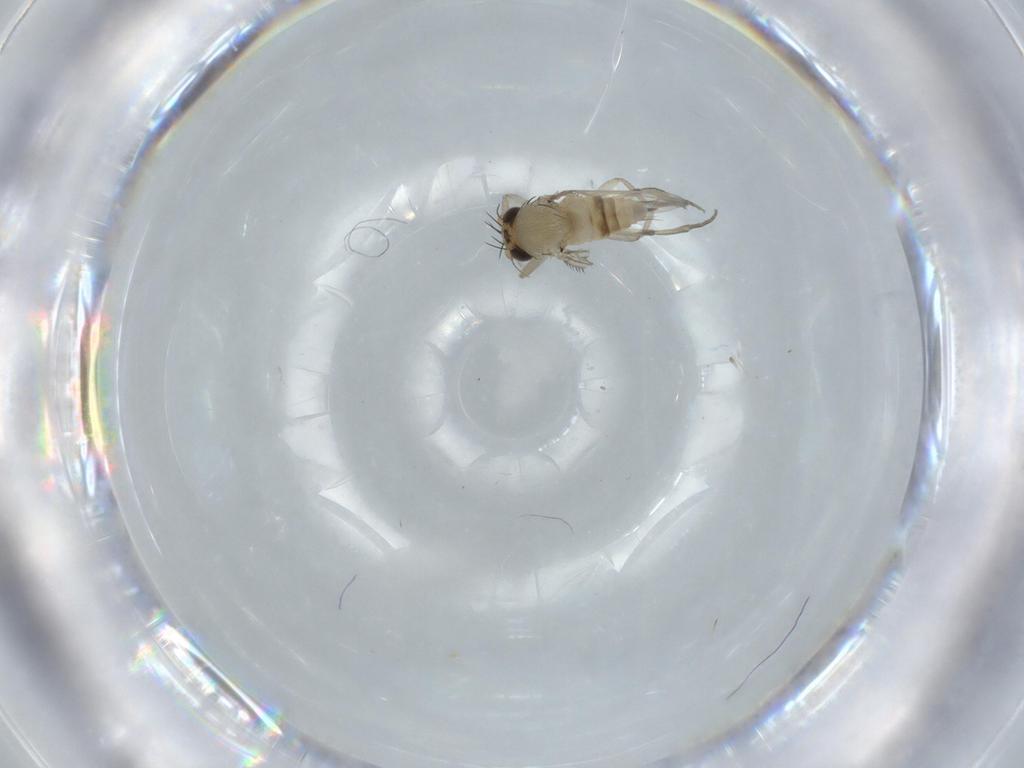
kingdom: Animalia
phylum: Arthropoda
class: Insecta
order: Diptera
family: Phoridae
